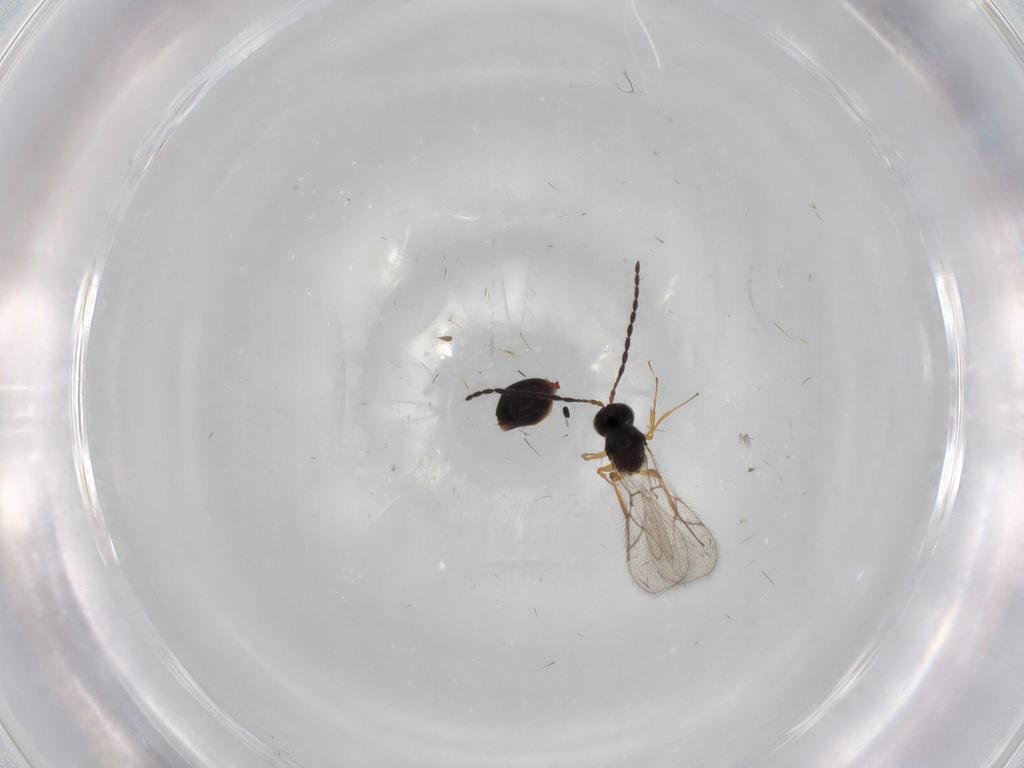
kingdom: Animalia
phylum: Arthropoda
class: Insecta
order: Hymenoptera
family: Figitidae
